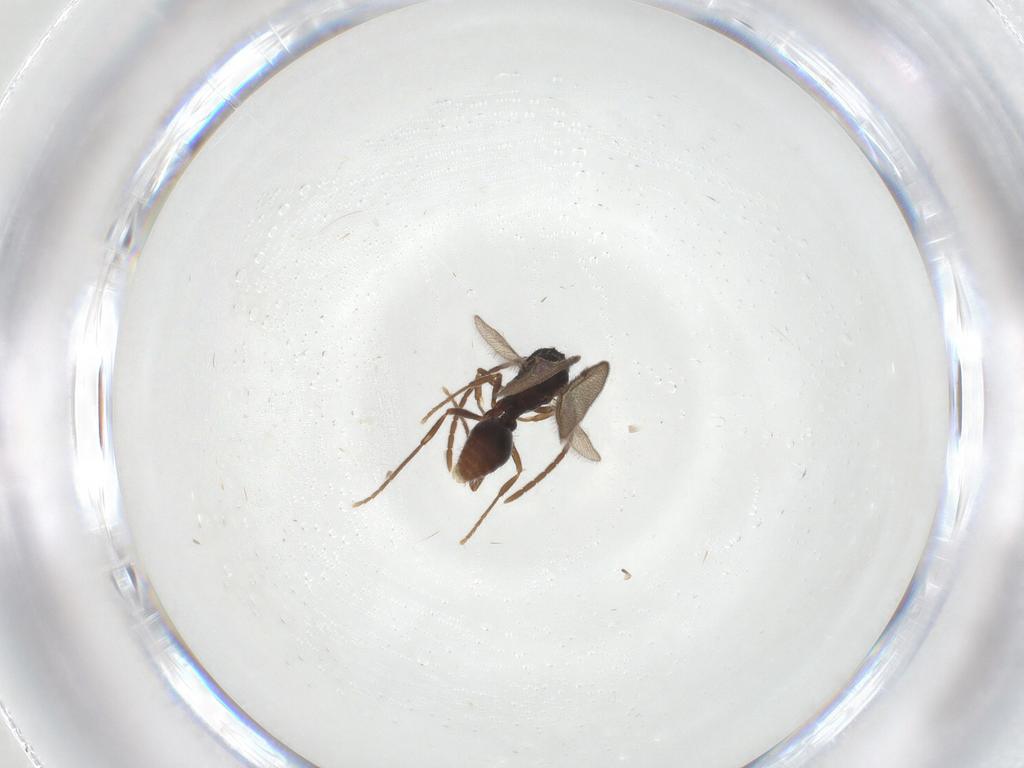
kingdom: Animalia
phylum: Arthropoda
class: Insecta
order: Hymenoptera
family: Formicidae
